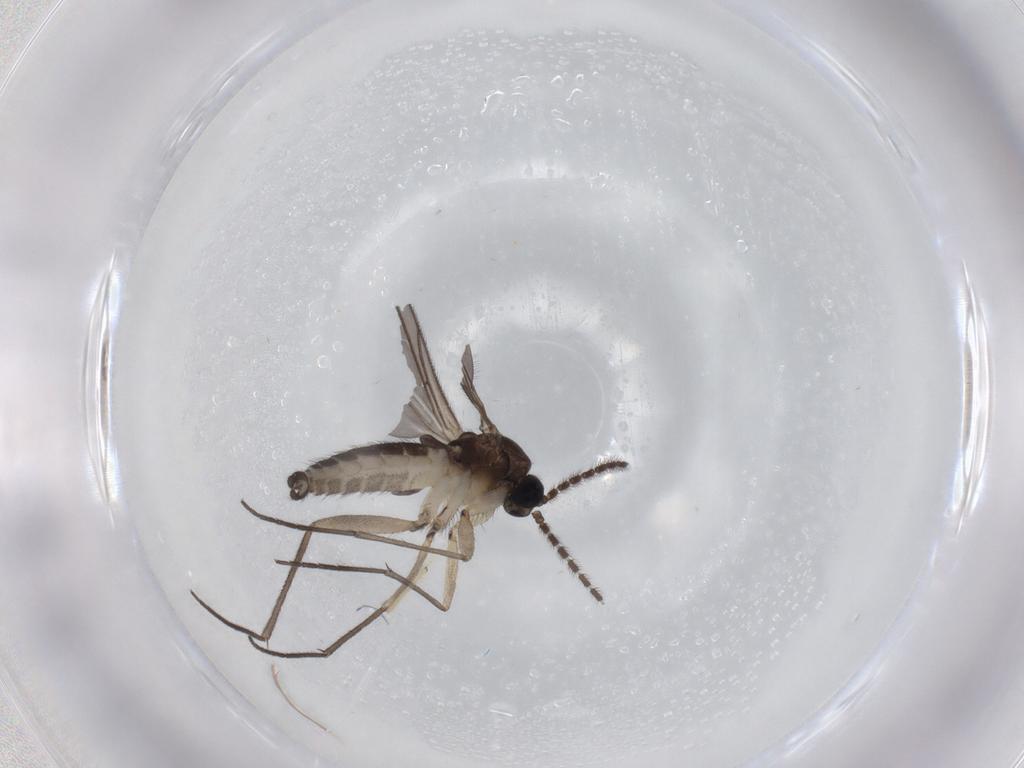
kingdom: Animalia
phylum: Arthropoda
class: Insecta
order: Diptera
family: Sciaridae
